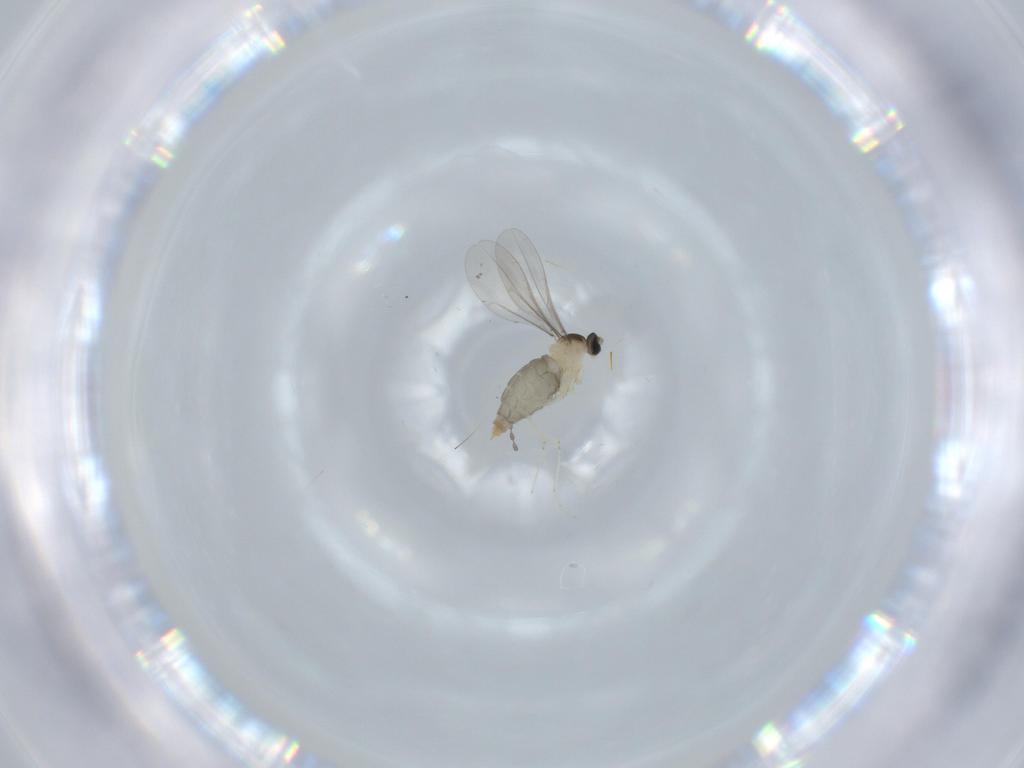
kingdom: Animalia
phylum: Arthropoda
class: Insecta
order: Diptera
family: Cecidomyiidae
